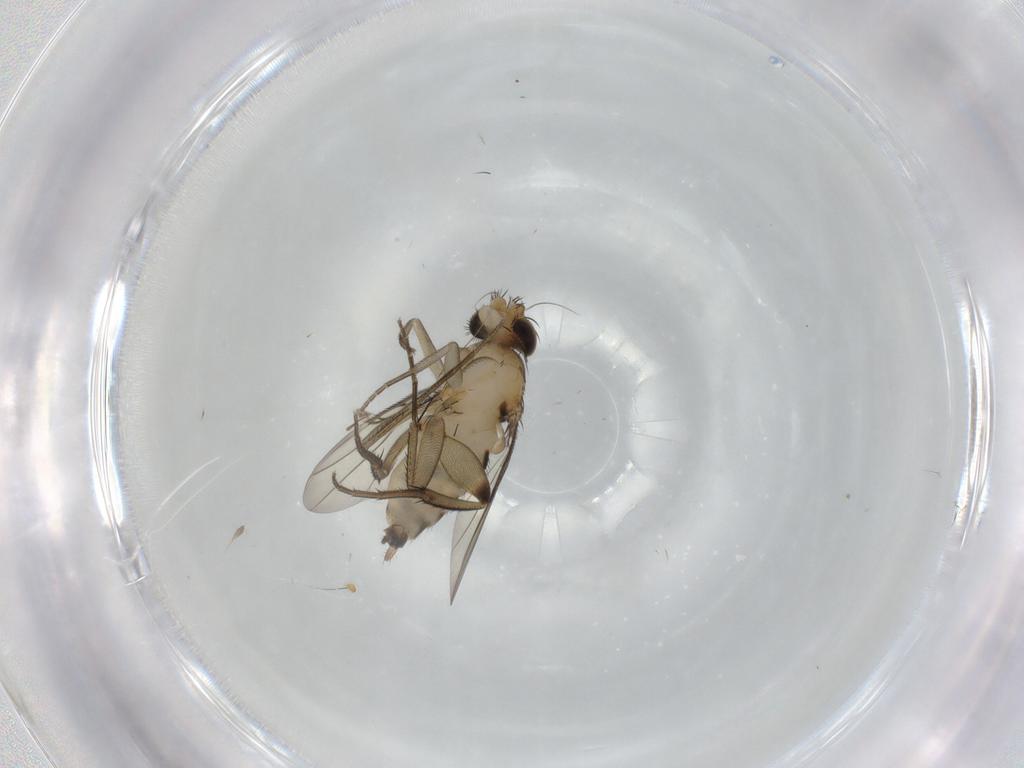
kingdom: Animalia
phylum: Arthropoda
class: Insecta
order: Diptera
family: Phoridae
